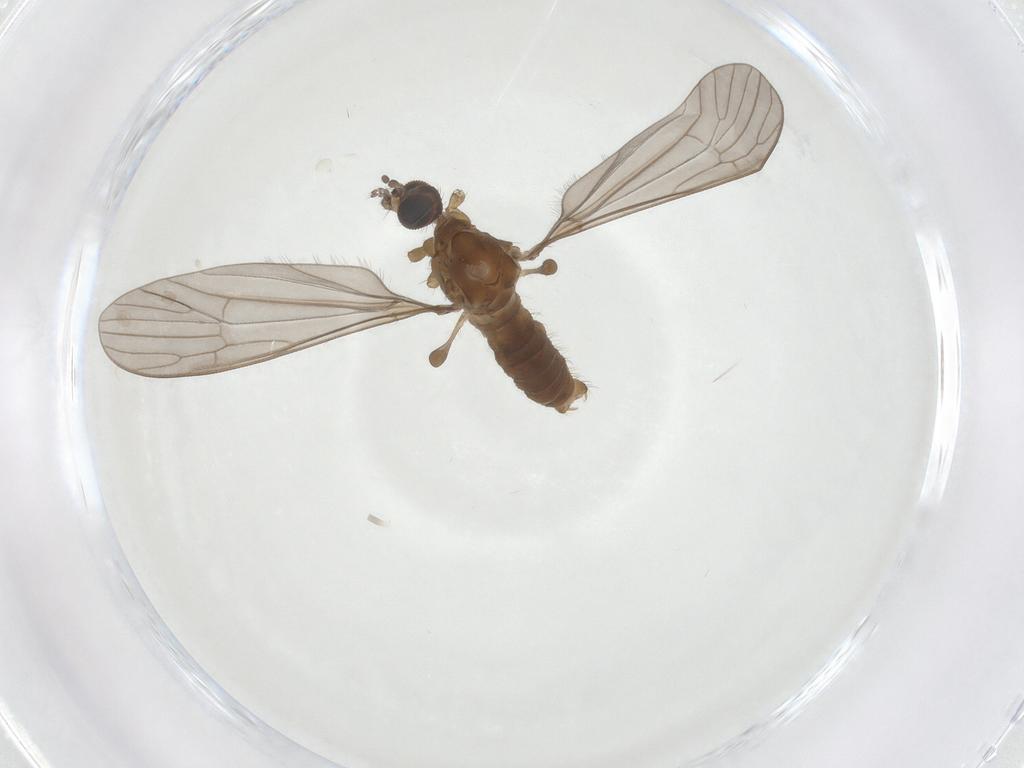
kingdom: Animalia
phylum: Arthropoda
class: Insecta
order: Diptera
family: Limoniidae
